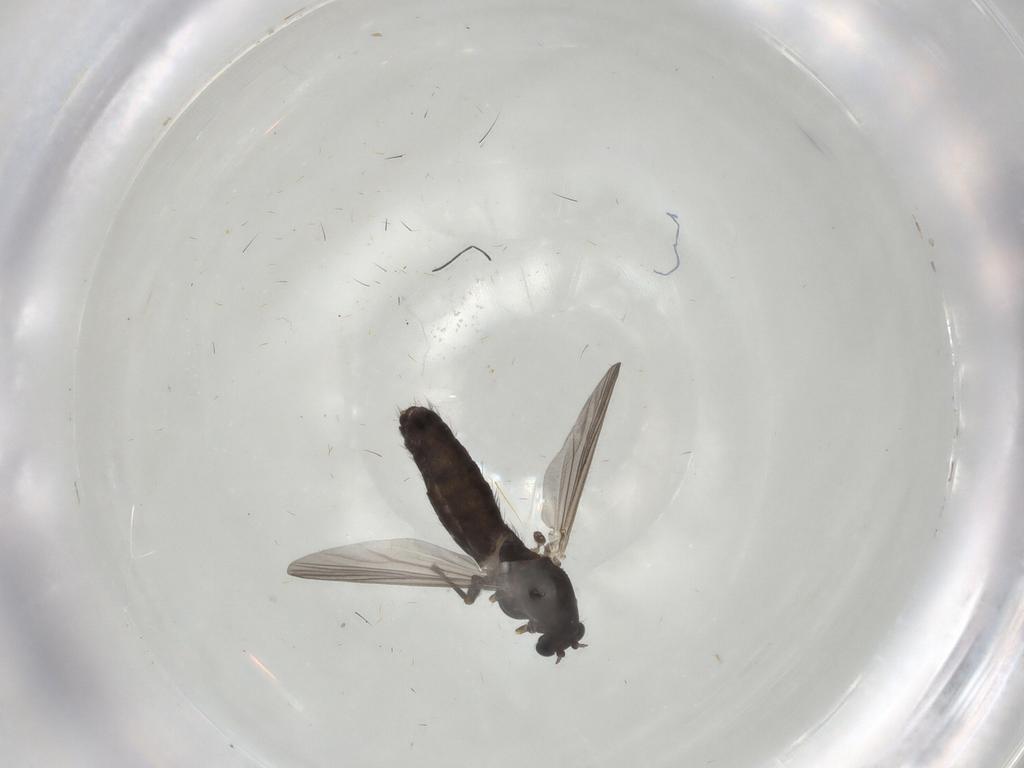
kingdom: Animalia
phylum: Arthropoda
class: Insecta
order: Diptera
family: Chironomidae
